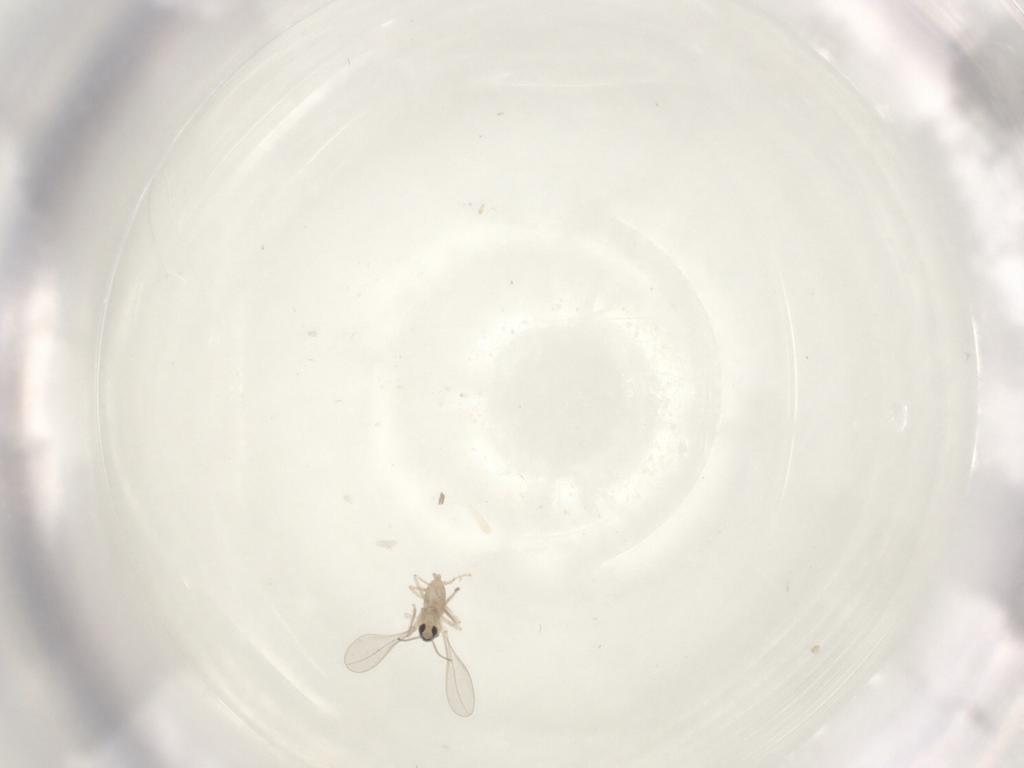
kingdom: Animalia
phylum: Arthropoda
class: Insecta
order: Diptera
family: Cecidomyiidae
